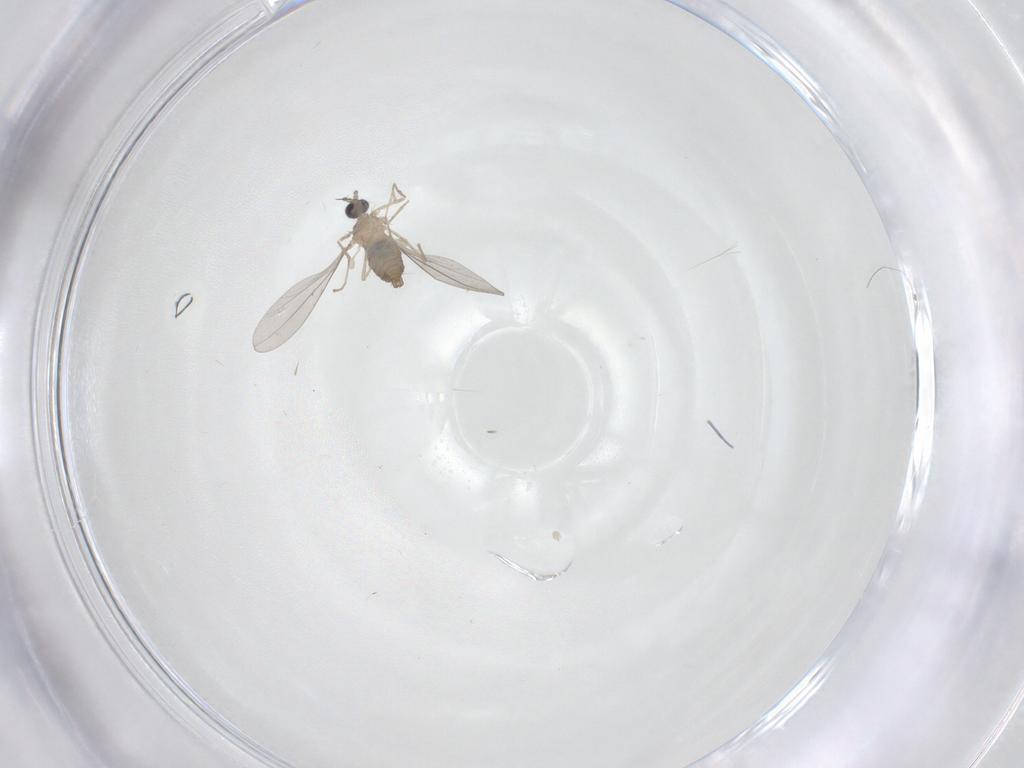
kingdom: Animalia
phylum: Arthropoda
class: Insecta
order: Diptera
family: Cecidomyiidae
